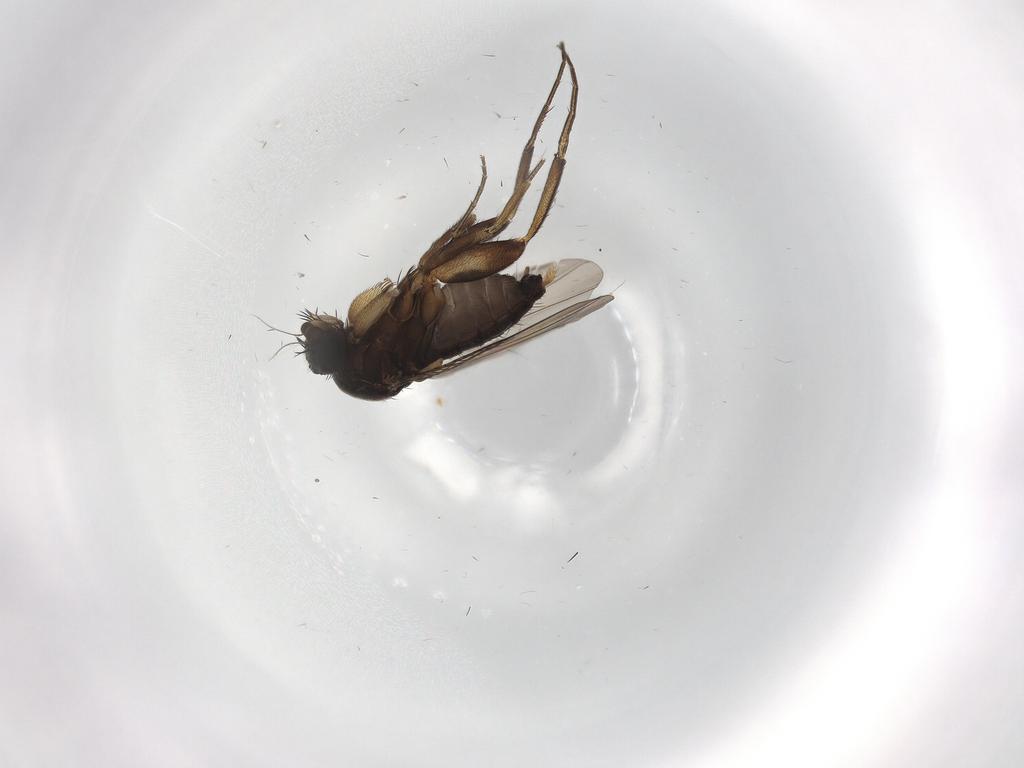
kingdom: Animalia
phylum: Arthropoda
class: Insecta
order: Diptera
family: Phoridae
